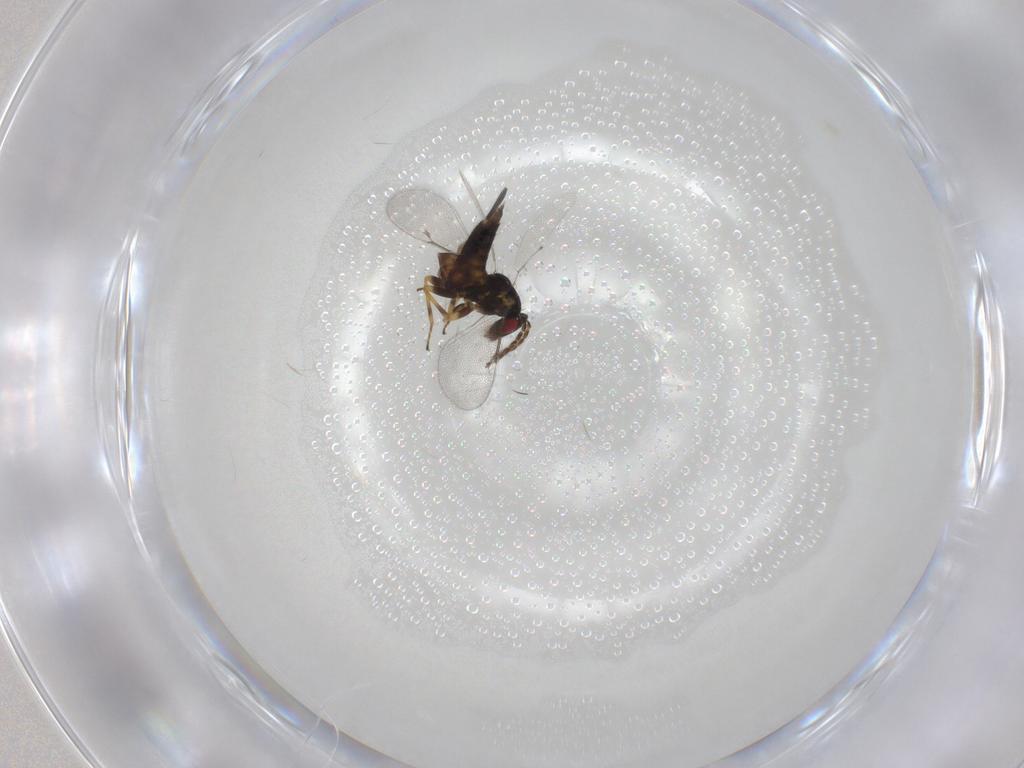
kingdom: Animalia
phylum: Arthropoda
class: Insecta
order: Hymenoptera
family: Eulophidae
